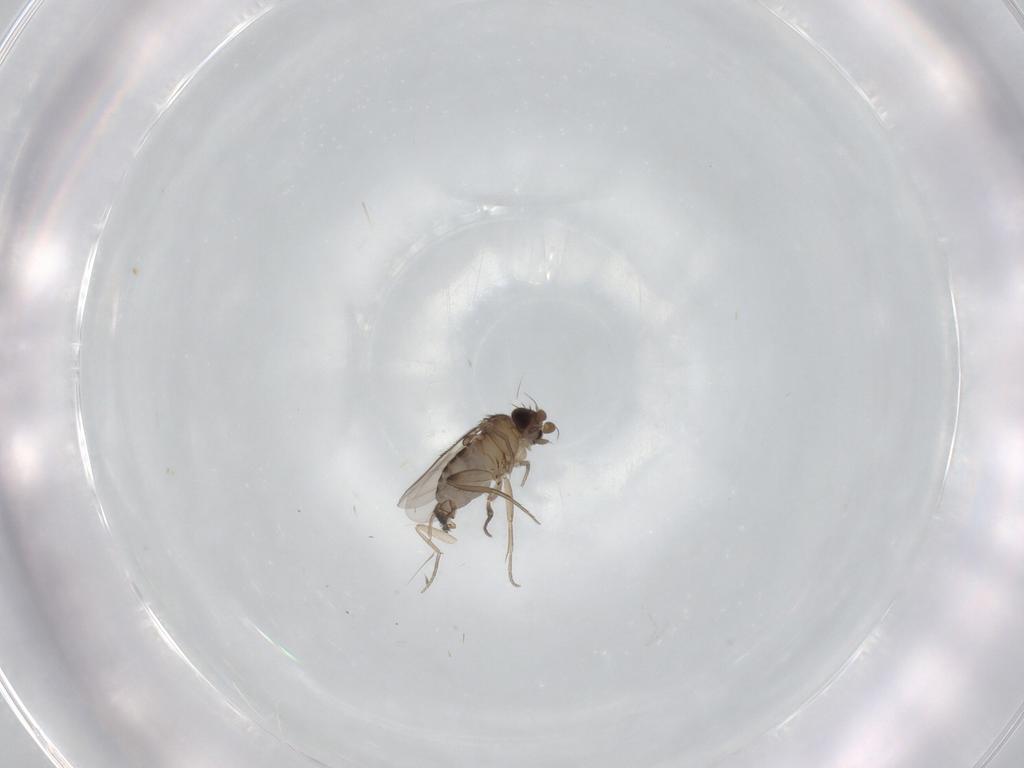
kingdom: Animalia
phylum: Arthropoda
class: Insecta
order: Diptera
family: Phoridae
